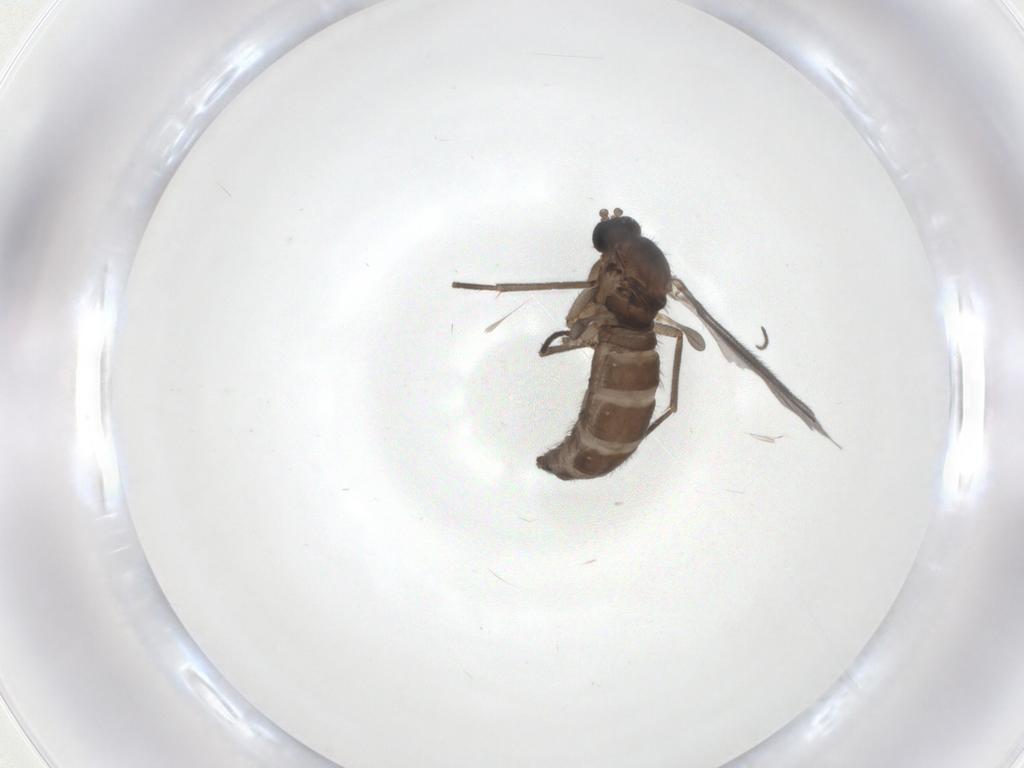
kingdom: Animalia
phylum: Arthropoda
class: Insecta
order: Diptera
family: Sciaridae
